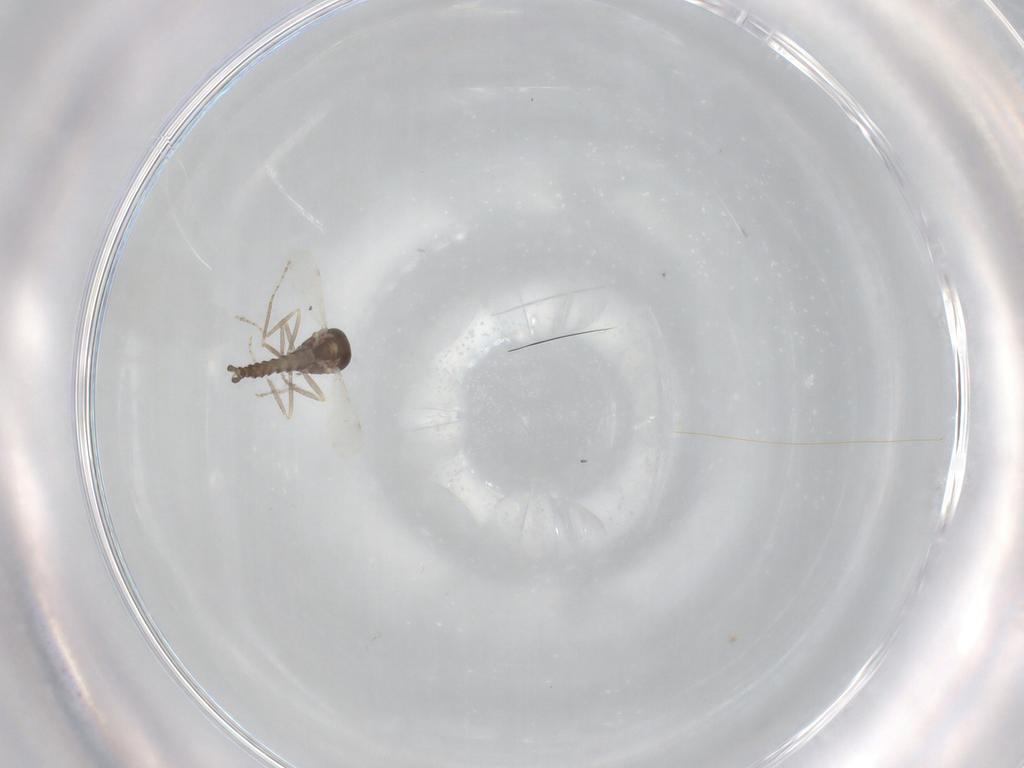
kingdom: Animalia
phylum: Arthropoda
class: Insecta
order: Diptera
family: Ceratopogonidae
